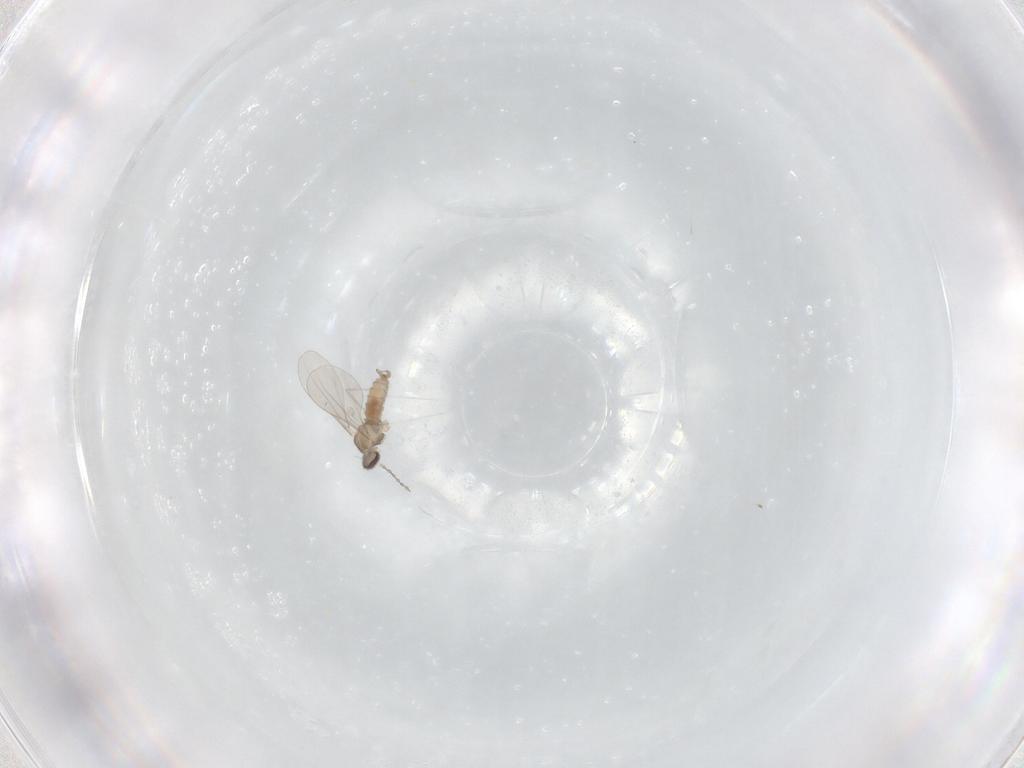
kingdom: Animalia
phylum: Arthropoda
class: Insecta
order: Diptera
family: Cecidomyiidae
